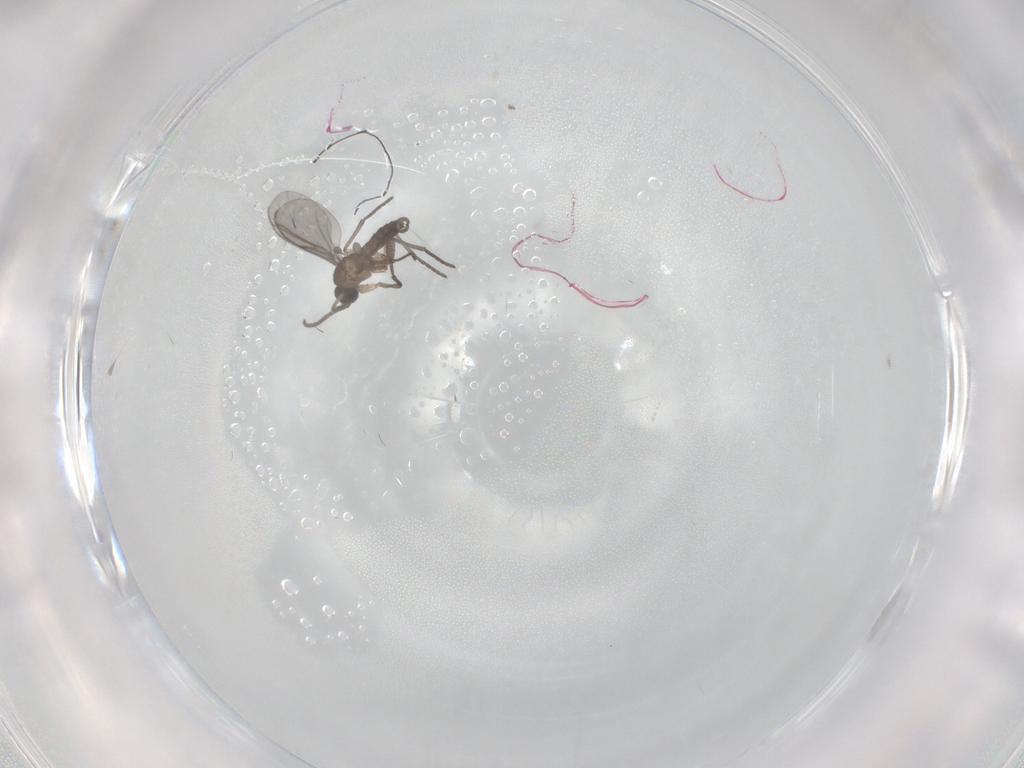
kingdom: Animalia
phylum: Arthropoda
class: Insecta
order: Diptera
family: Sciaridae
